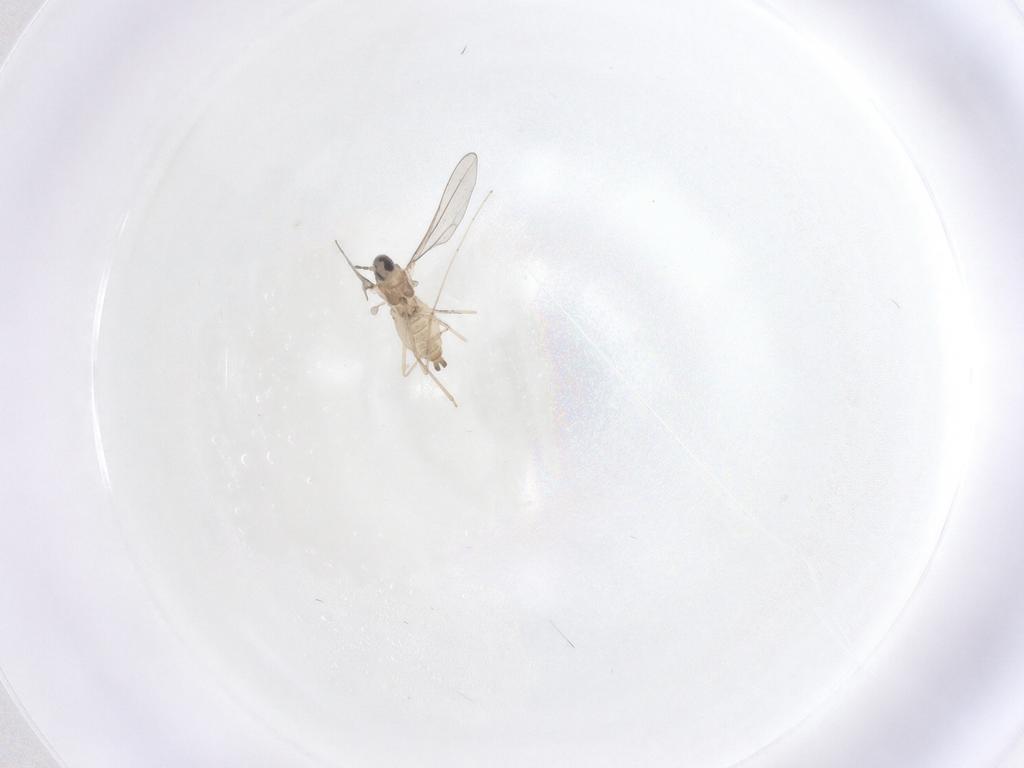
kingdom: Animalia
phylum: Arthropoda
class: Insecta
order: Diptera
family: Cecidomyiidae
